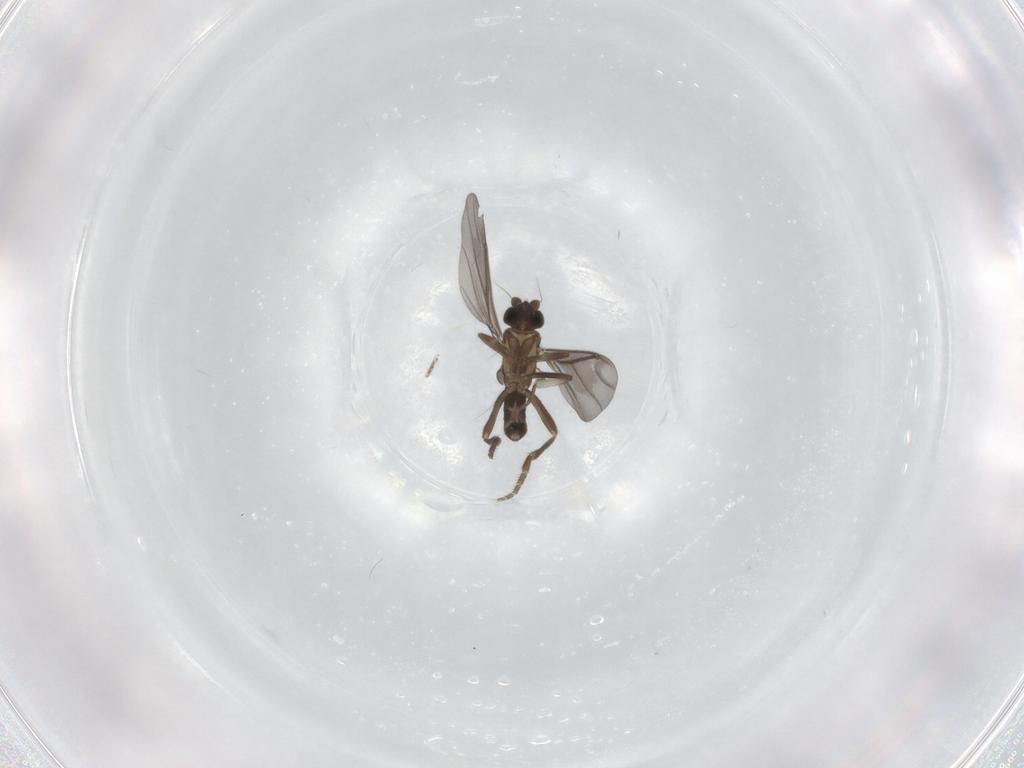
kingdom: Animalia
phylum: Arthropoda
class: Insecta
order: Diptera
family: Phoridae
